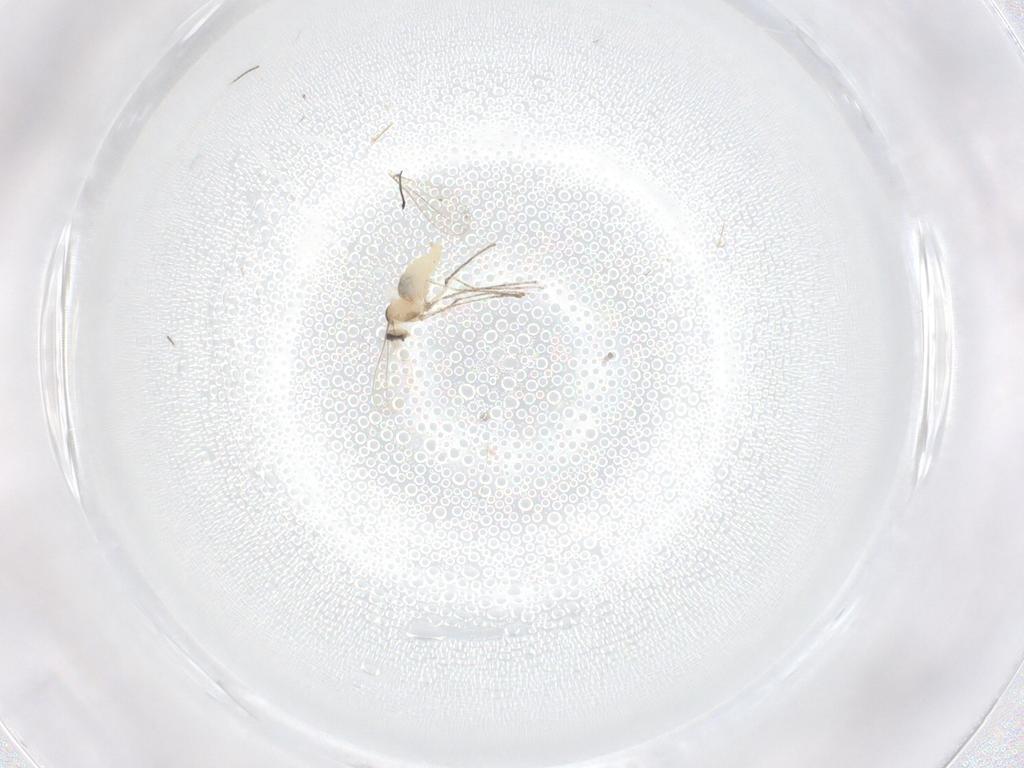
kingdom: Animalia
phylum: Arthropoda
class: Insecta
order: Diptera
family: Cecidomyiidae
